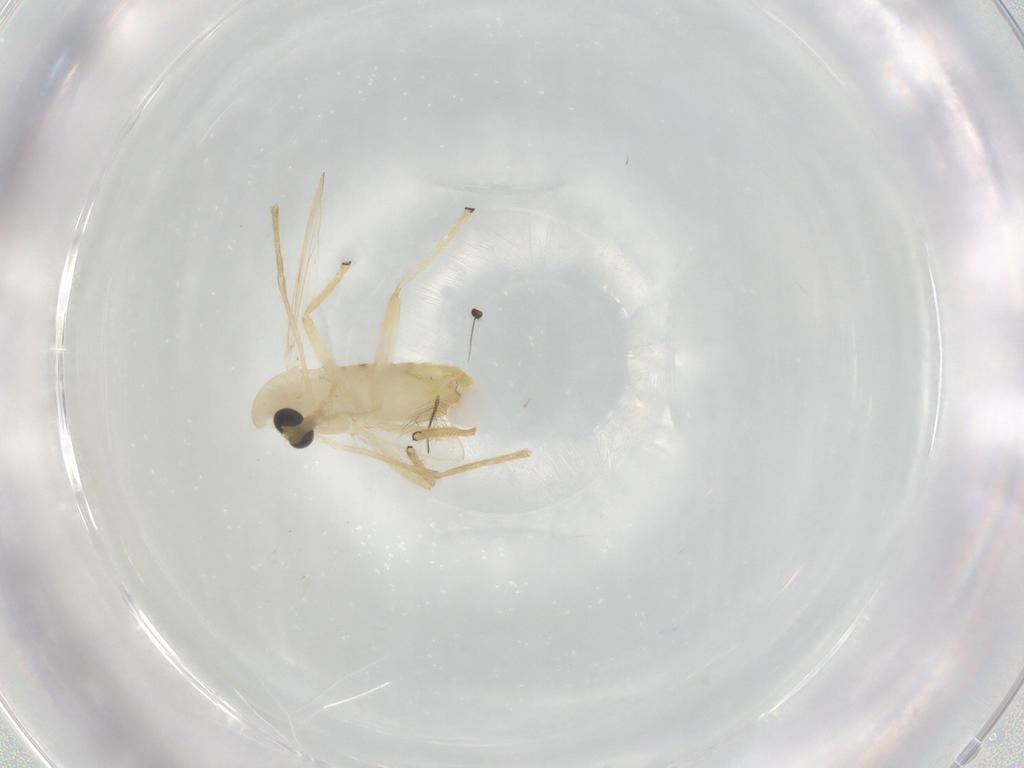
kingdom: Animalia
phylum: Arthropoda
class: Insecta
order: Diptera
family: Chironomidae
